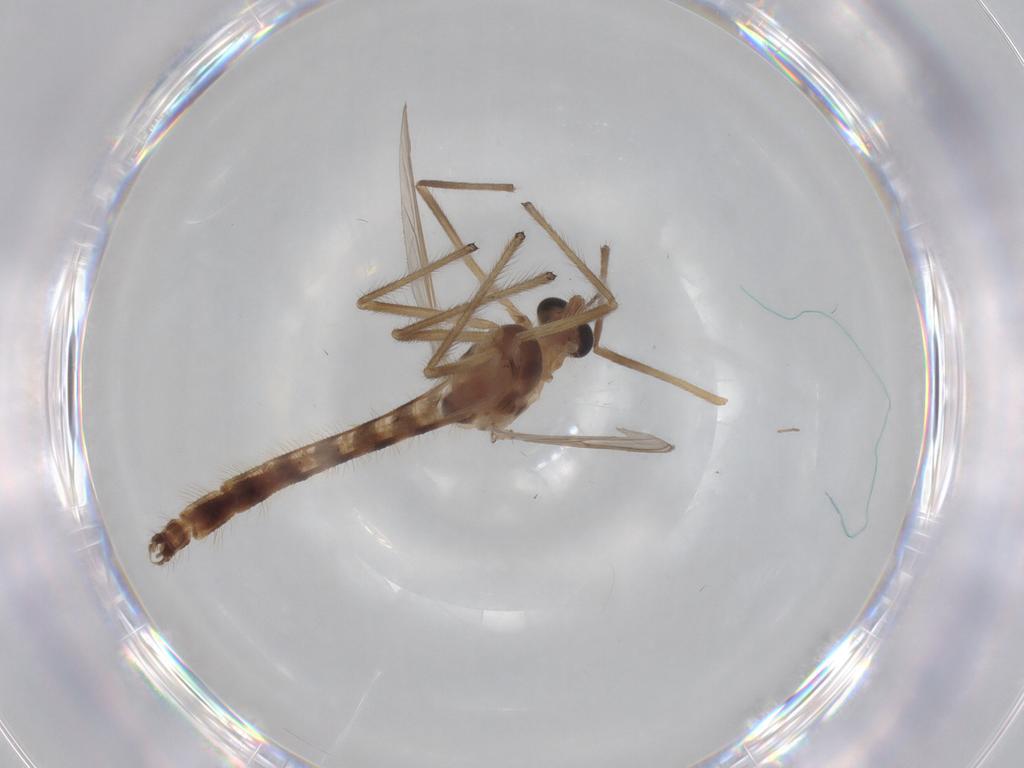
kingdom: Animalia
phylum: Arthropoda
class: Insecta
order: Diptera
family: Chironomidae
